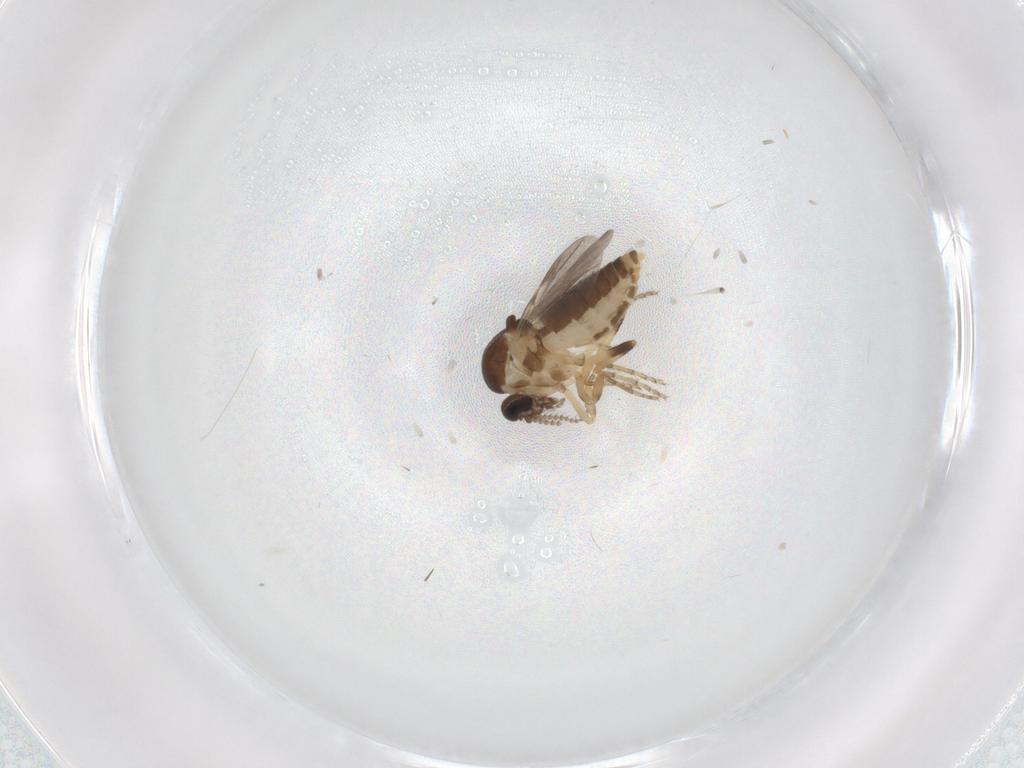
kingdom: Animalia
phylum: Arthropoda
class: Insecta
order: Diptera
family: Ceratopogonidae
